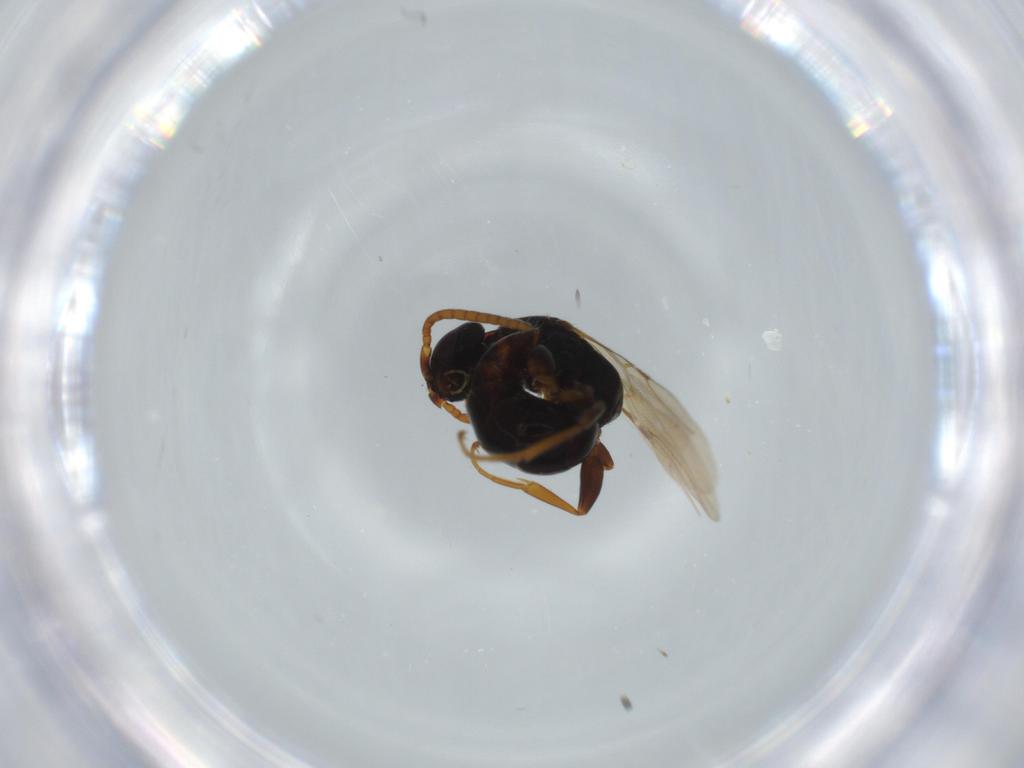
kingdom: Animalia
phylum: Arthropoda
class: Insecta
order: Hymenoptera
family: Bethylidae
